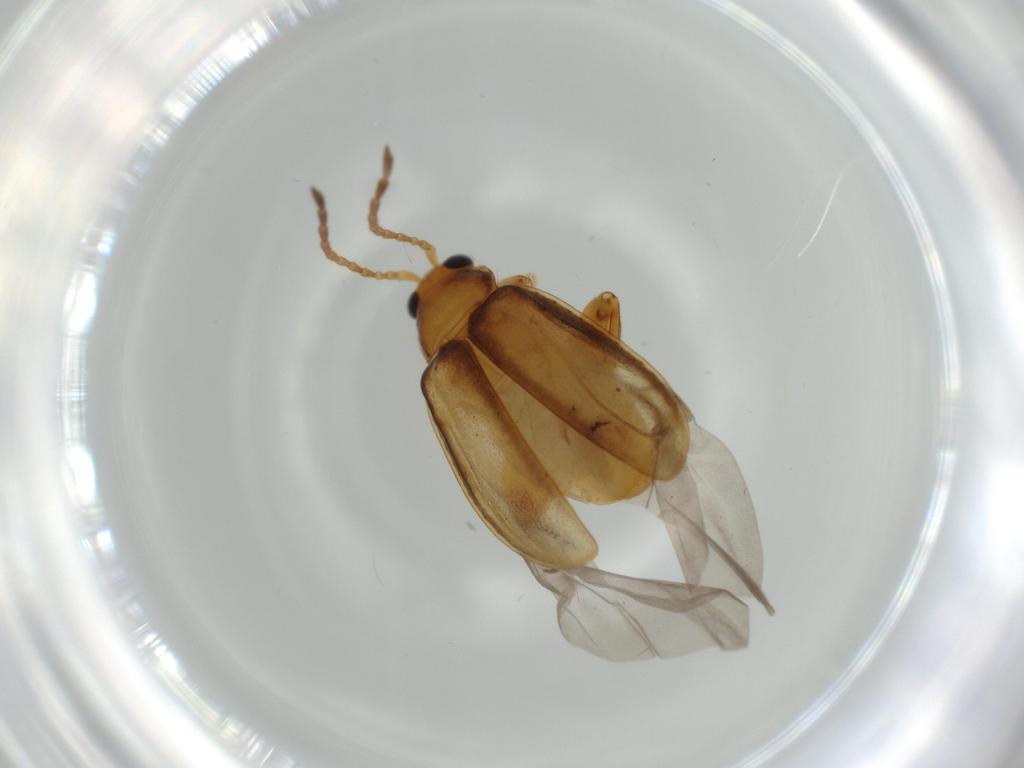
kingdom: Animalia
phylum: Arthropoda
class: Insecta
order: Coleoptera
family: Chrysomelidae
